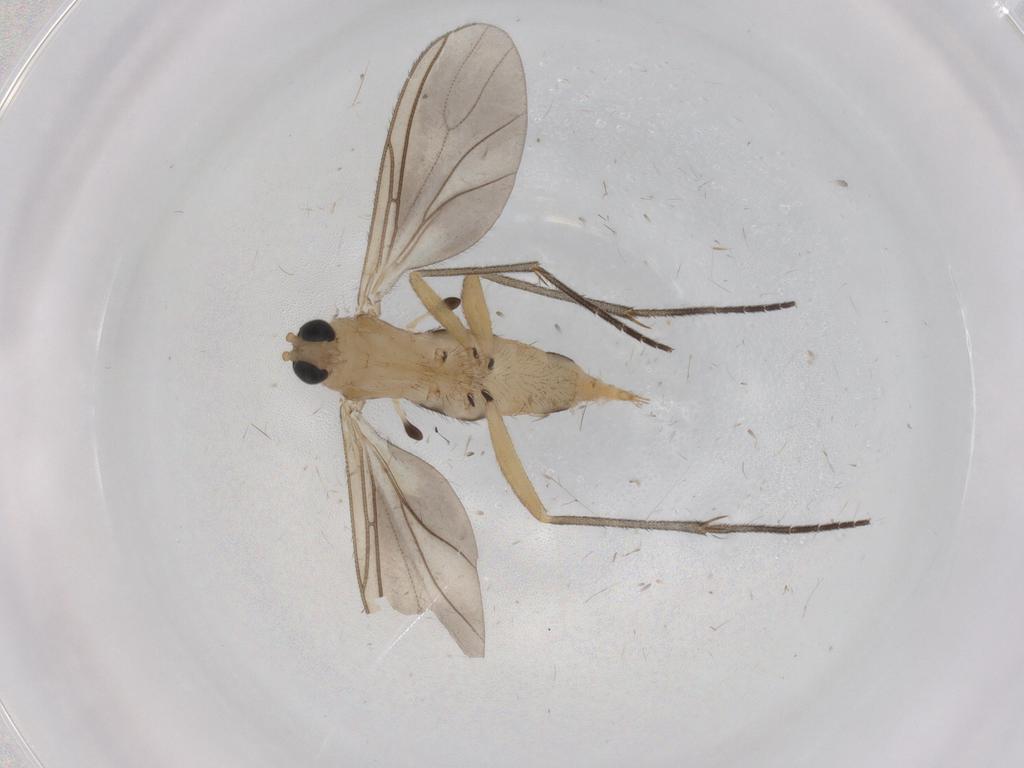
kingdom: Animalia
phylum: Arthropoda
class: Insecta
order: Diptera
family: Sciaridae
